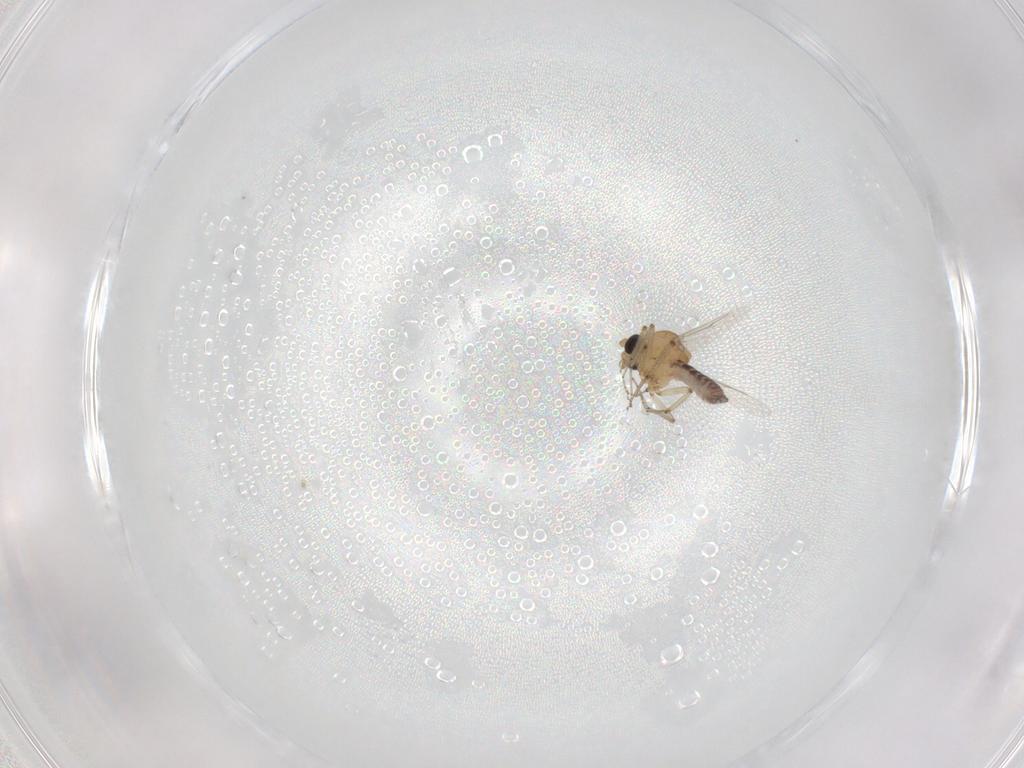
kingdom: Animalia
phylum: Arthropoda
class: Insecta
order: Diptera
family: Ceratopogonidae
